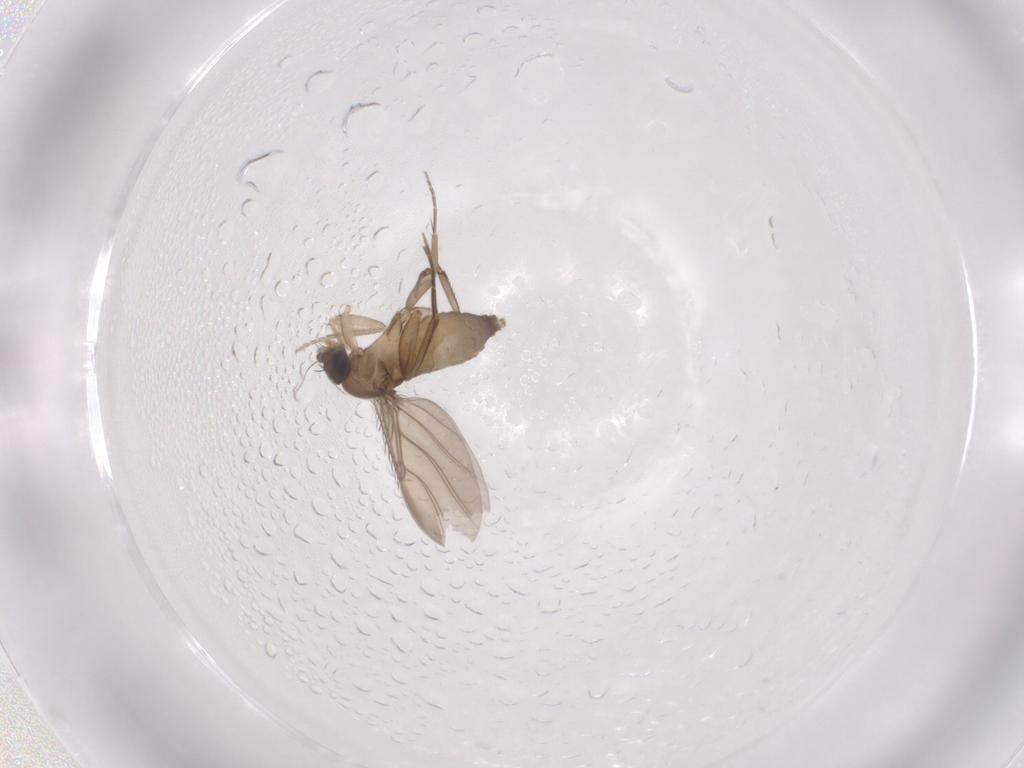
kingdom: Animalia
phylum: Arthropoda
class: Insecta
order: Diptera
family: Phoridae
